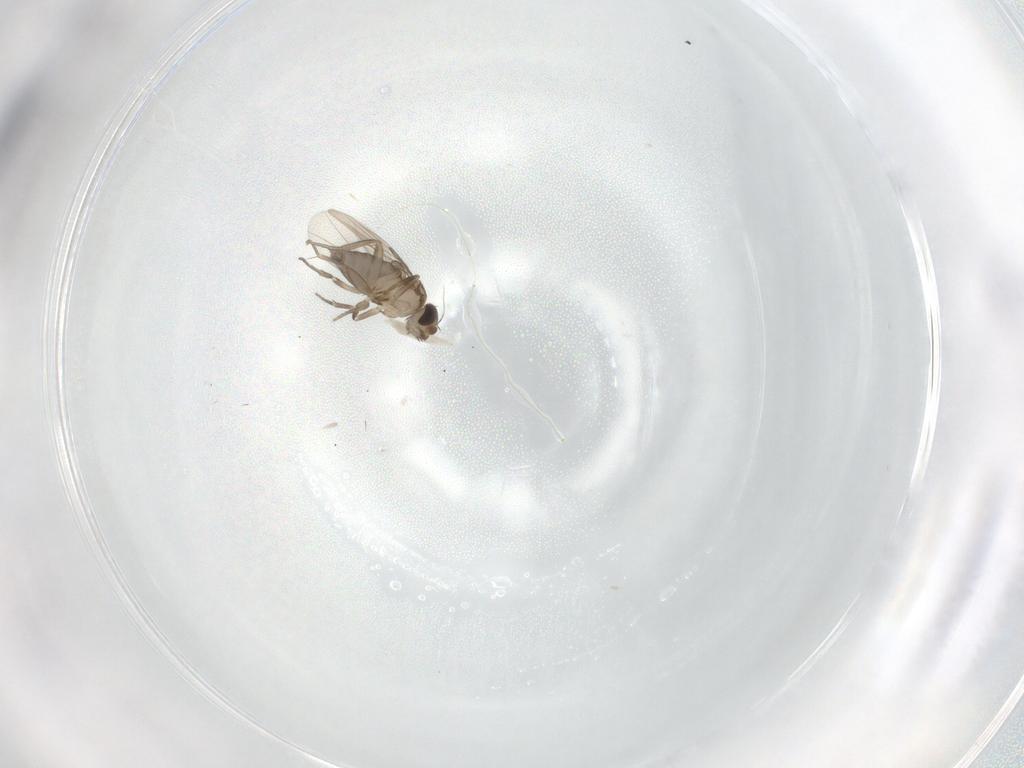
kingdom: Animalia
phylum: Arthropoda
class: Insecta
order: Diptera
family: Cecidomyiidae
